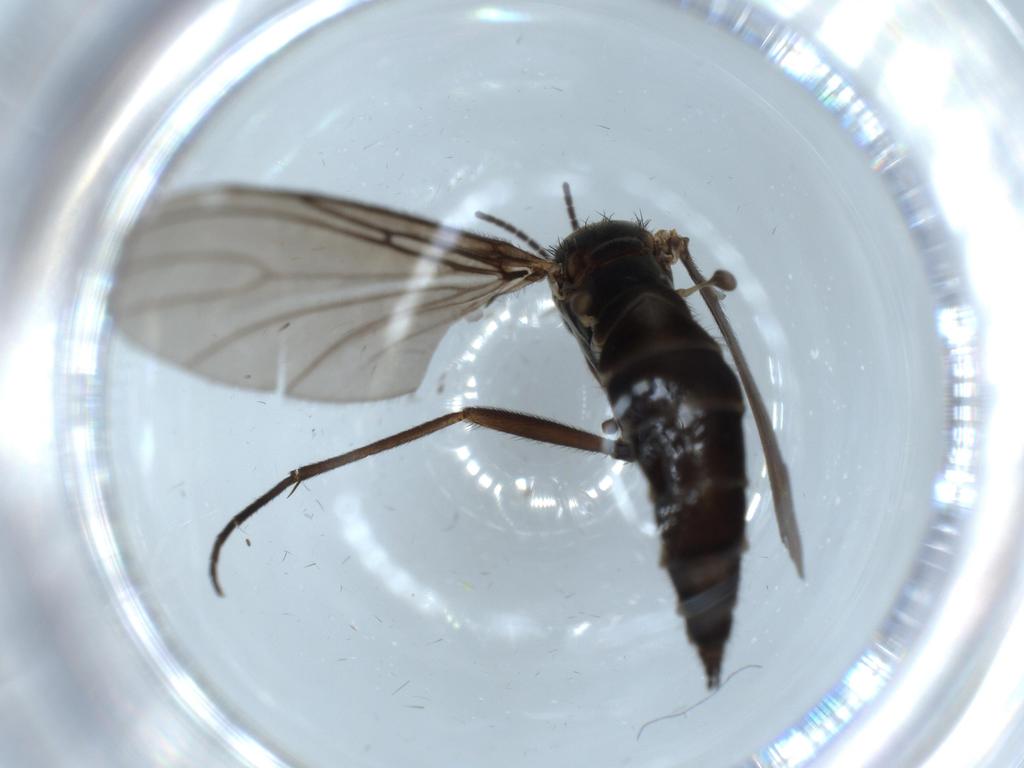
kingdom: Animalia
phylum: Arthropoda
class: Insecta
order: Diptera
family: Sciaridae
